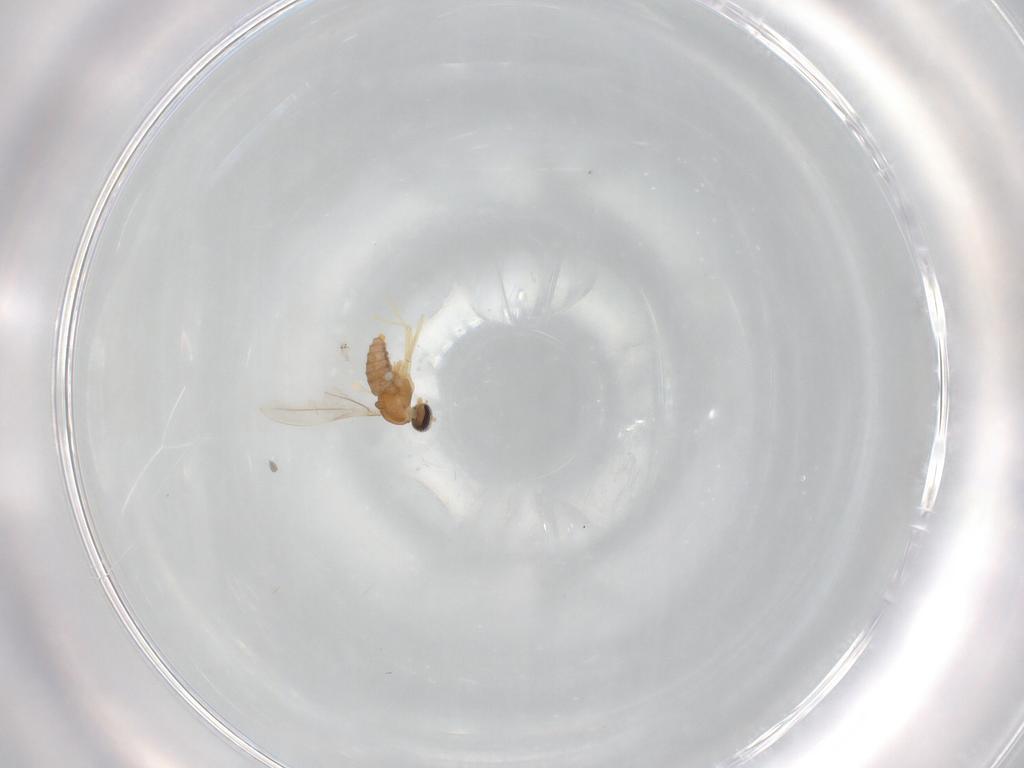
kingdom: Animalia
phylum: Arthropoda
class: Insecta
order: Diptera
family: Cecidomyiidae
